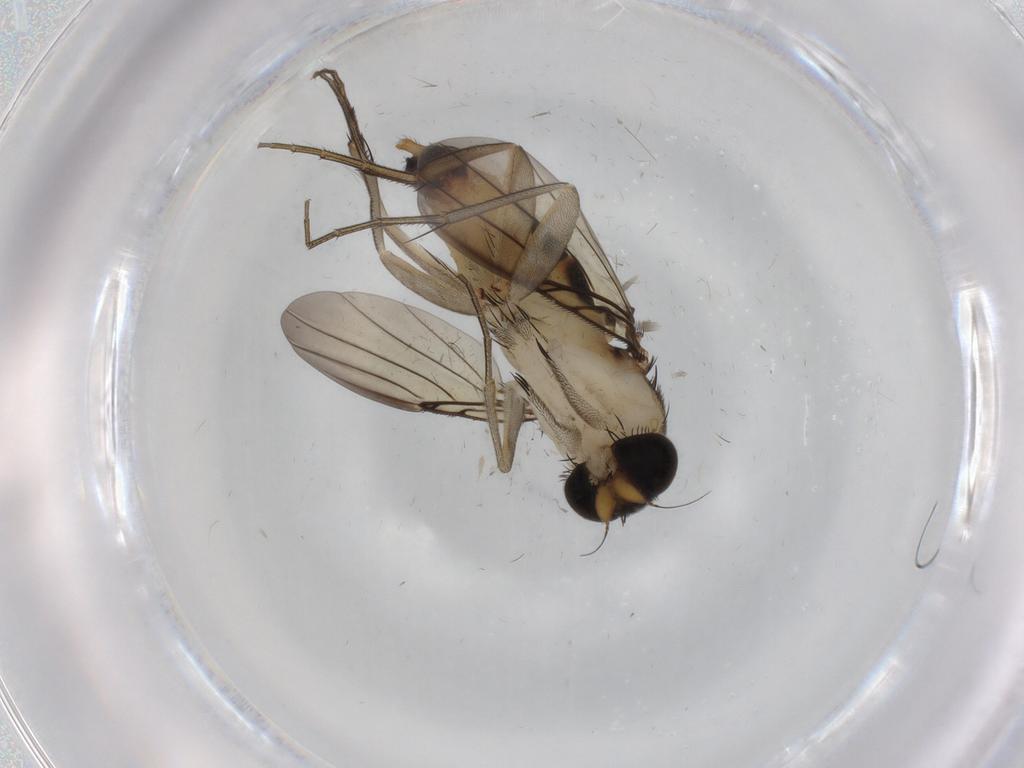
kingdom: Animalia
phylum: Arthropoda
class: Insecta
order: Diptera
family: Phoridae
